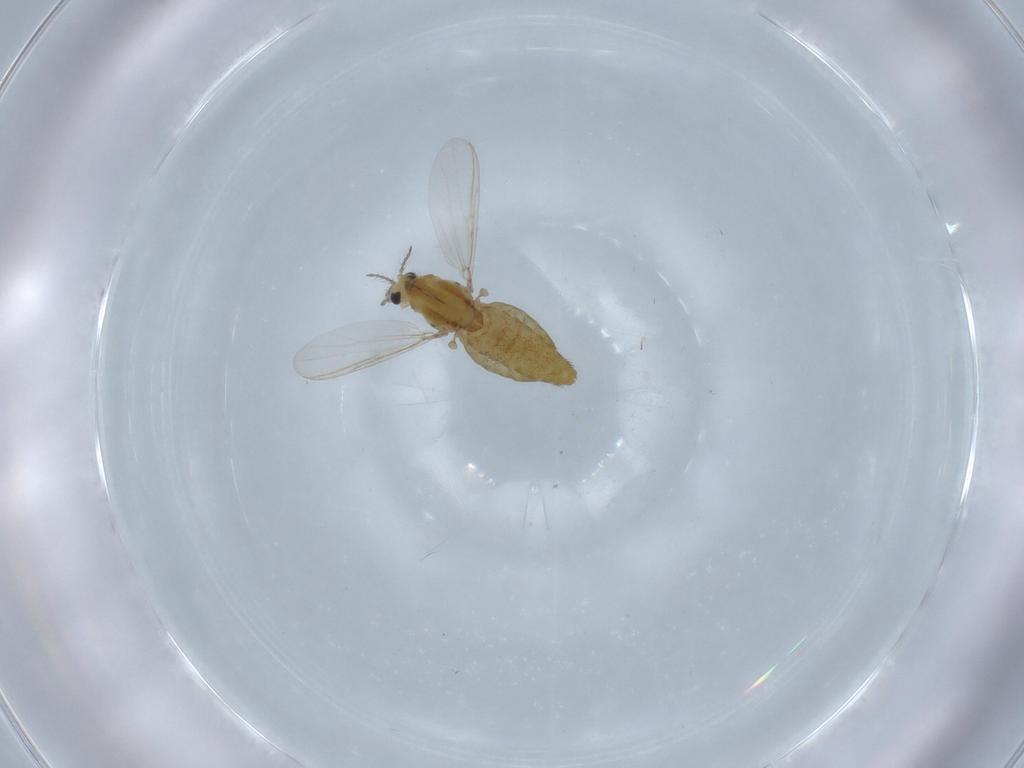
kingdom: Animalia
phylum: Arthropoda
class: Insecta
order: Diptera
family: Chironomidae
